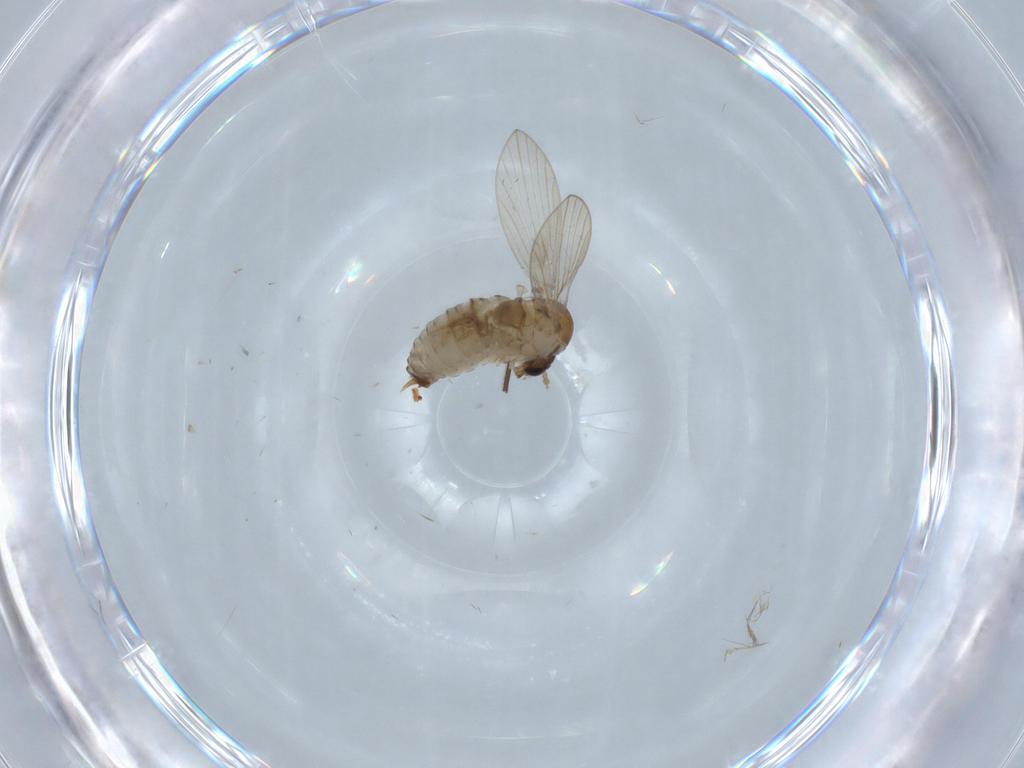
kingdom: Animalia
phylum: Arthropoda
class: Insecta
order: Diptera
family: Psychodidae
